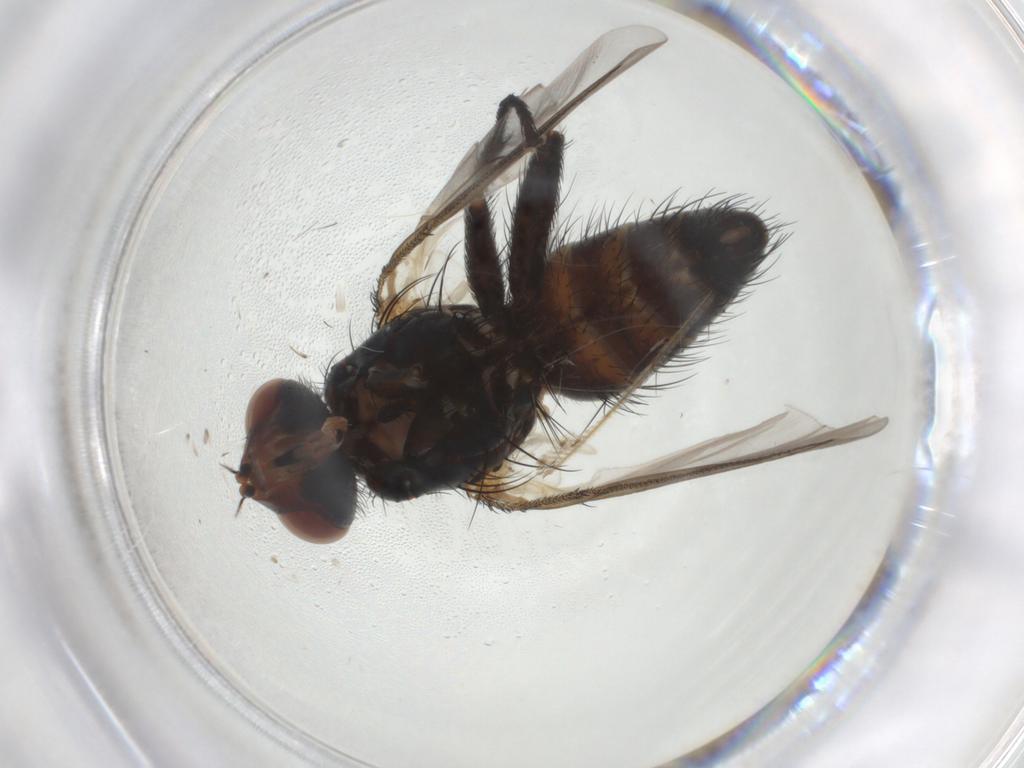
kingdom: Animalia
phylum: Arthropoda
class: Insecta
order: Diptera
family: Tachinidae
